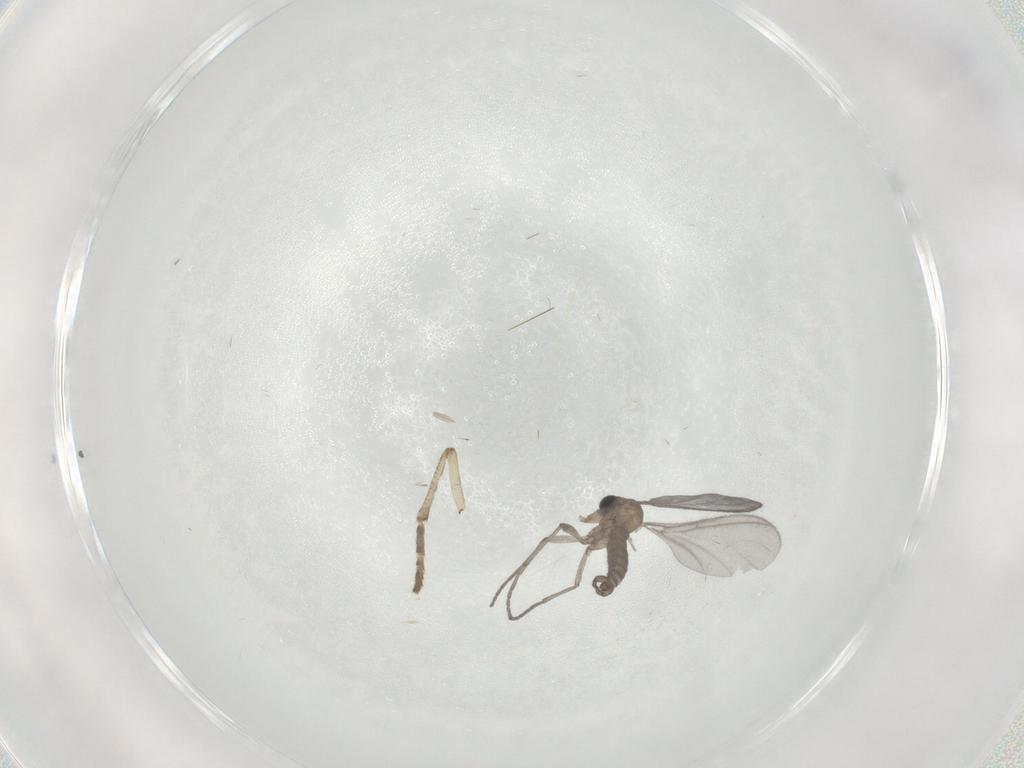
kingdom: Animalia
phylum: Arthropoda
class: Insecta
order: Diptera
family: Sciaridae
